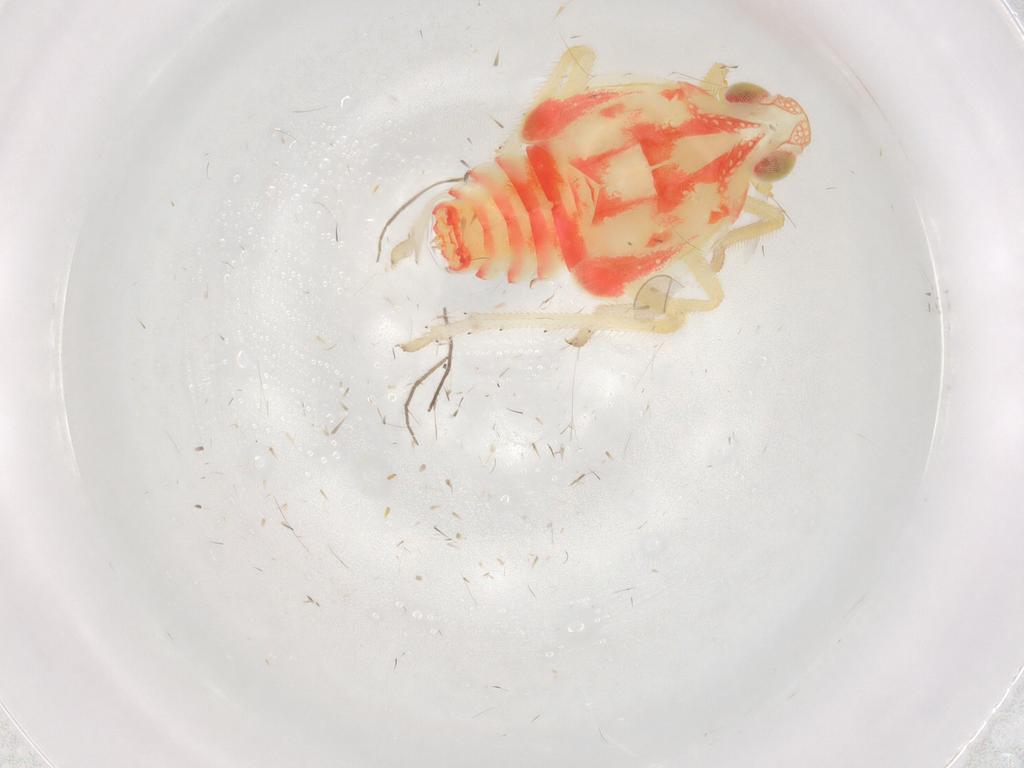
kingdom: Animalia
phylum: Arthropoda
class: Insecta
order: Hemiptera
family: Tropiduchidae
